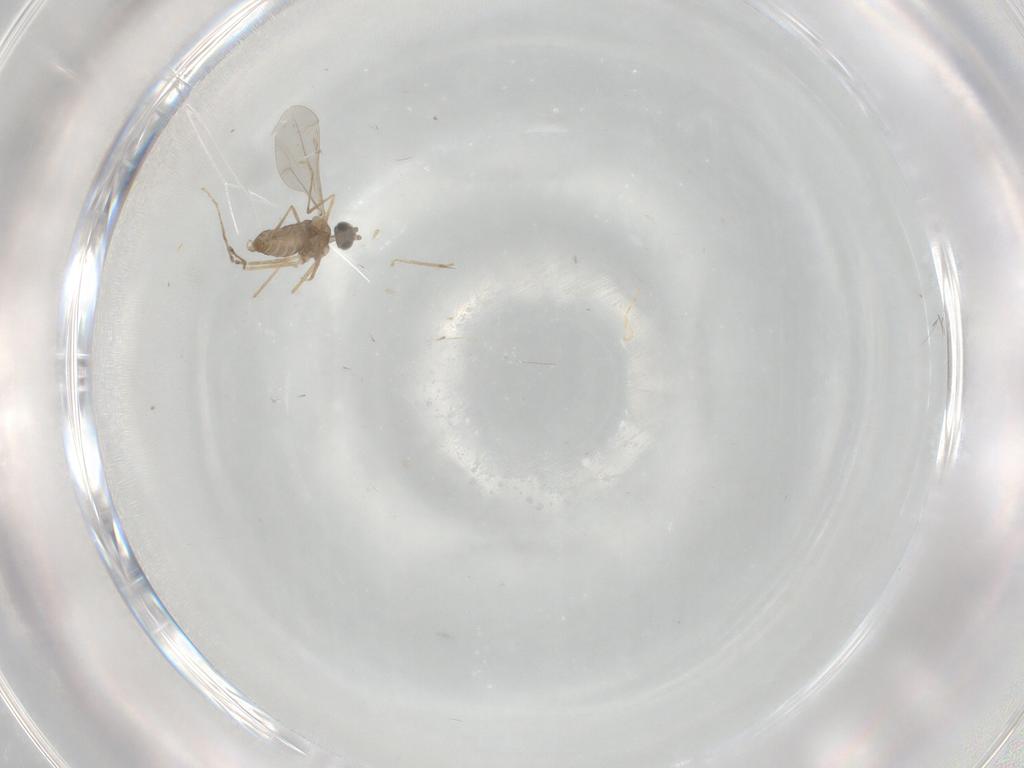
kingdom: Animalia
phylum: Arthropoda
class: Insecta
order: Diptera
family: Cecidomyiidae
